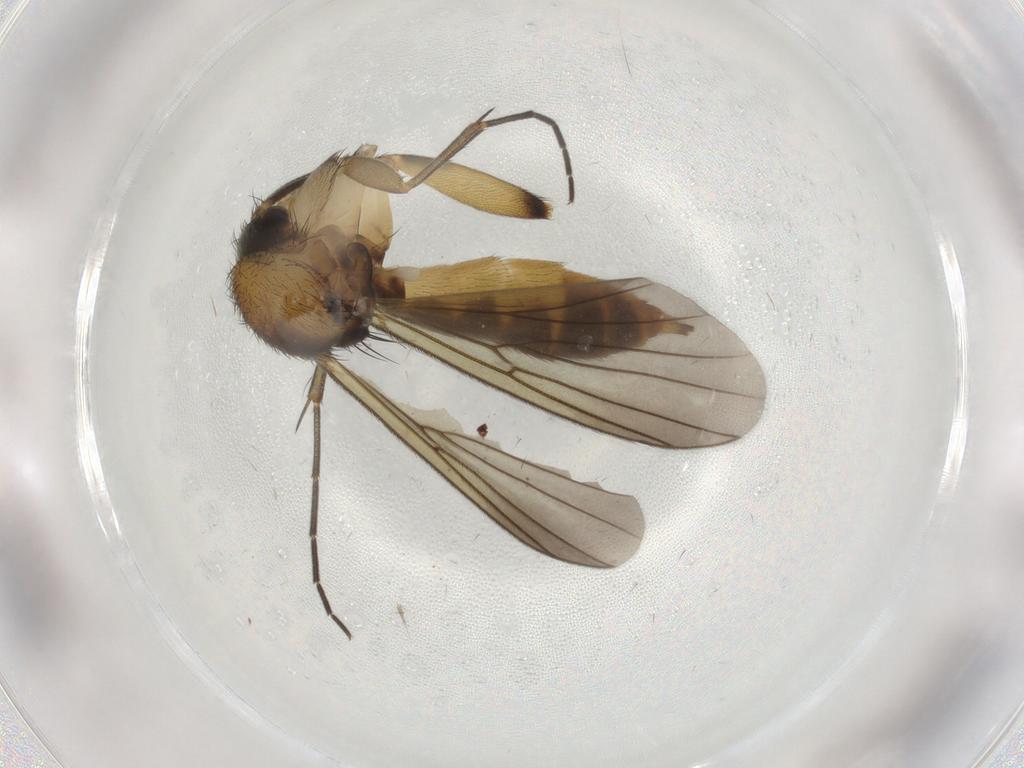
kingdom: Animalia
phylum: Arthropoda
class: Insecta
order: Diptera
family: Mycetophilidae
